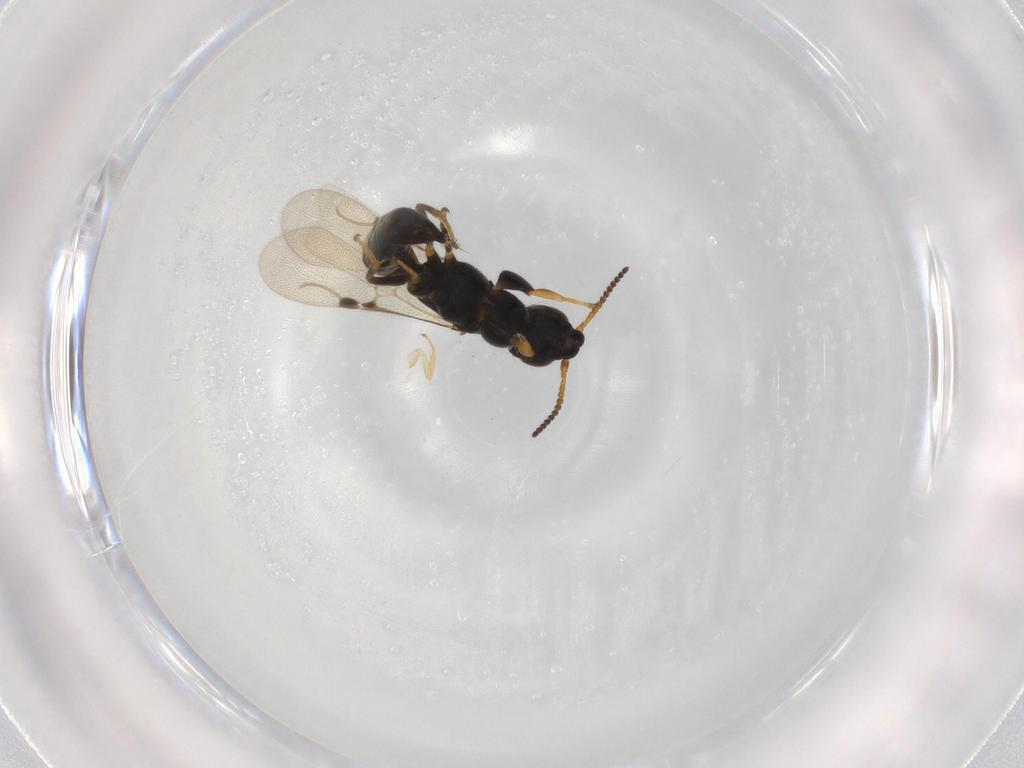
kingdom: Animalia
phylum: Arthropoda
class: Insecta
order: Hymenoptera
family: Bethylidae
